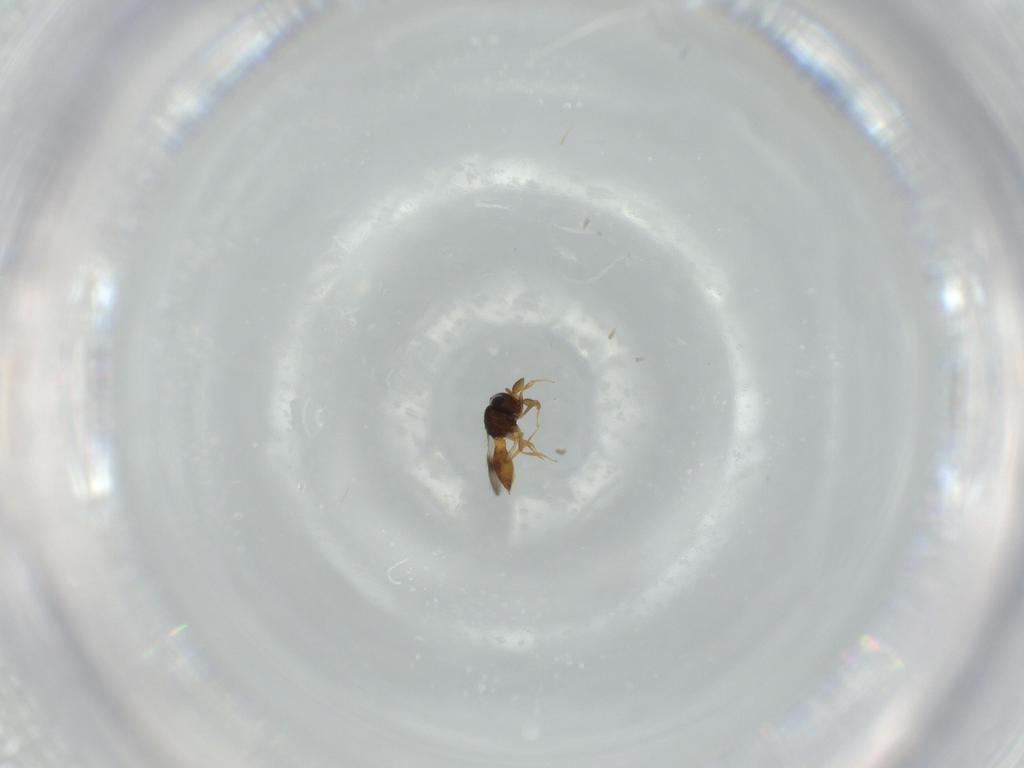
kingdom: Animalia
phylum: Arthropoda
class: Insecta
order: Hymenoptera
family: Scelionidae
